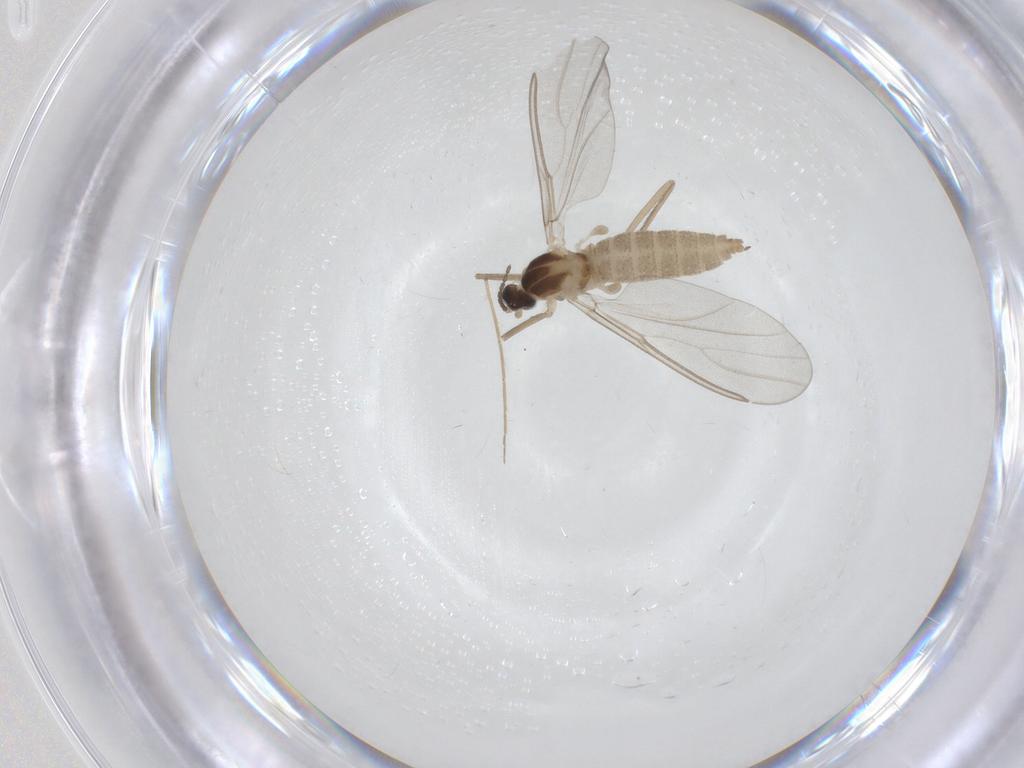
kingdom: Animalia
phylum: Arthropoda
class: Insecta
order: Diptera
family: Cecidomyiidae
